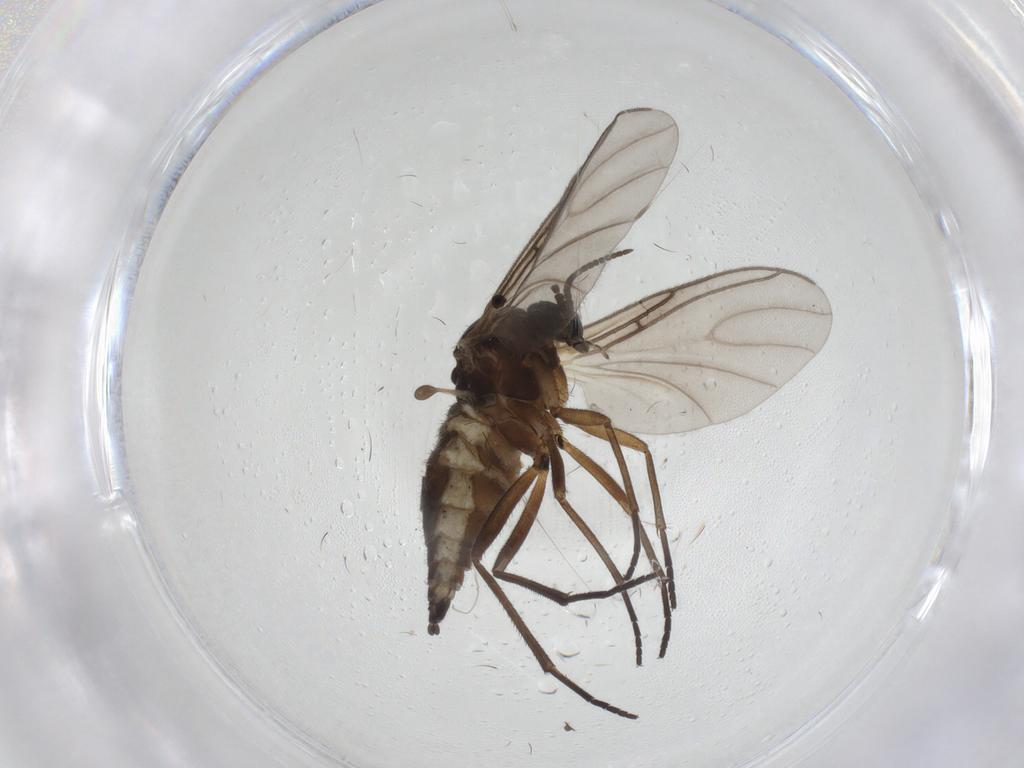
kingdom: Animalia
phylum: Arthropoda
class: Insecta
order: Diptera
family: Sciaridae
